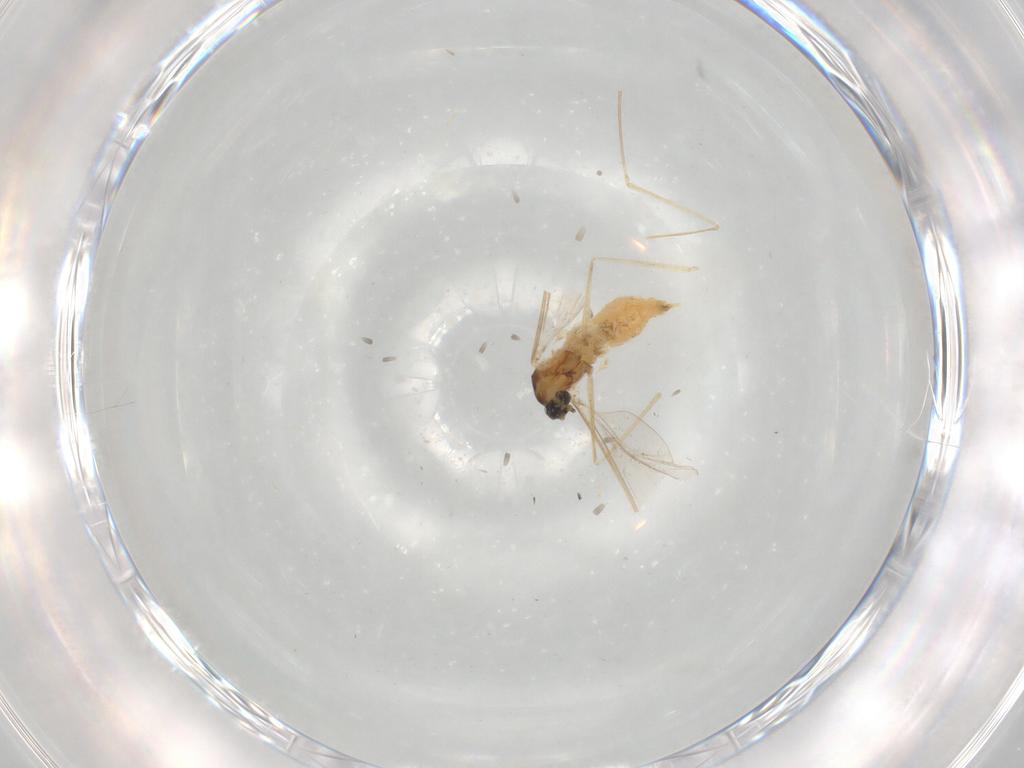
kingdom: Animalia
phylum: Arthropoda
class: Insecta
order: Diptera
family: Cecidomyiidae
